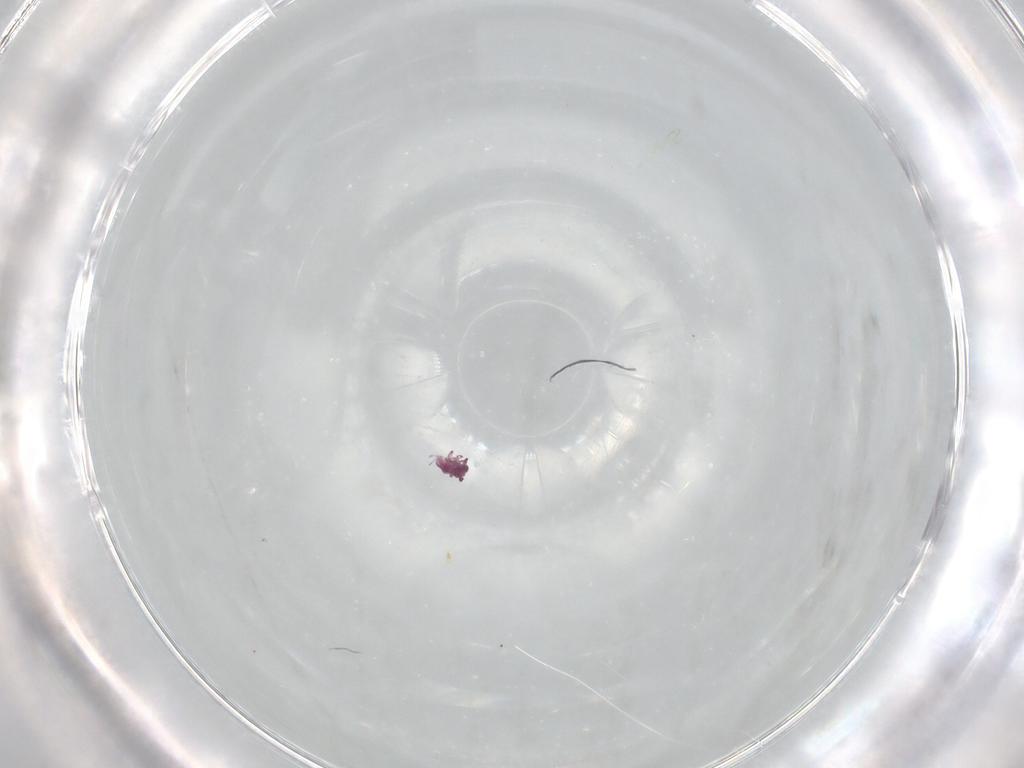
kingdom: Animalia
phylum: Arthropoda
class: Collembola
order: Symphypleona
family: Sminthurididae
